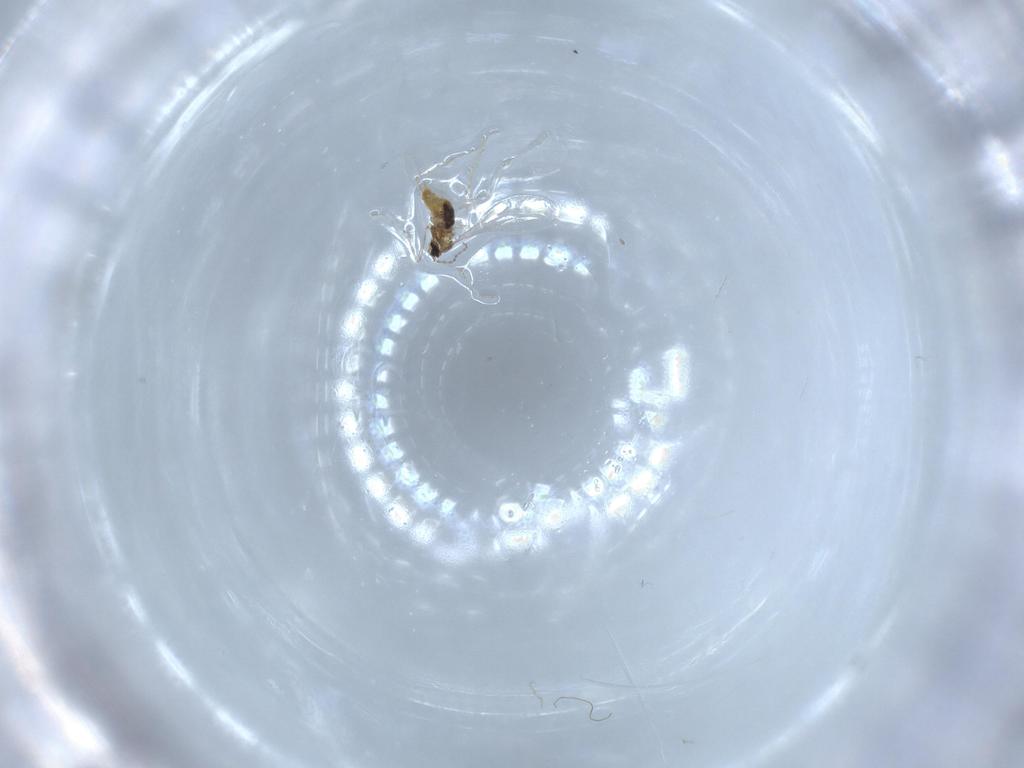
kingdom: Animalia
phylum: Arthropoda
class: Insecta
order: Diptera
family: Cecidomyiidae
